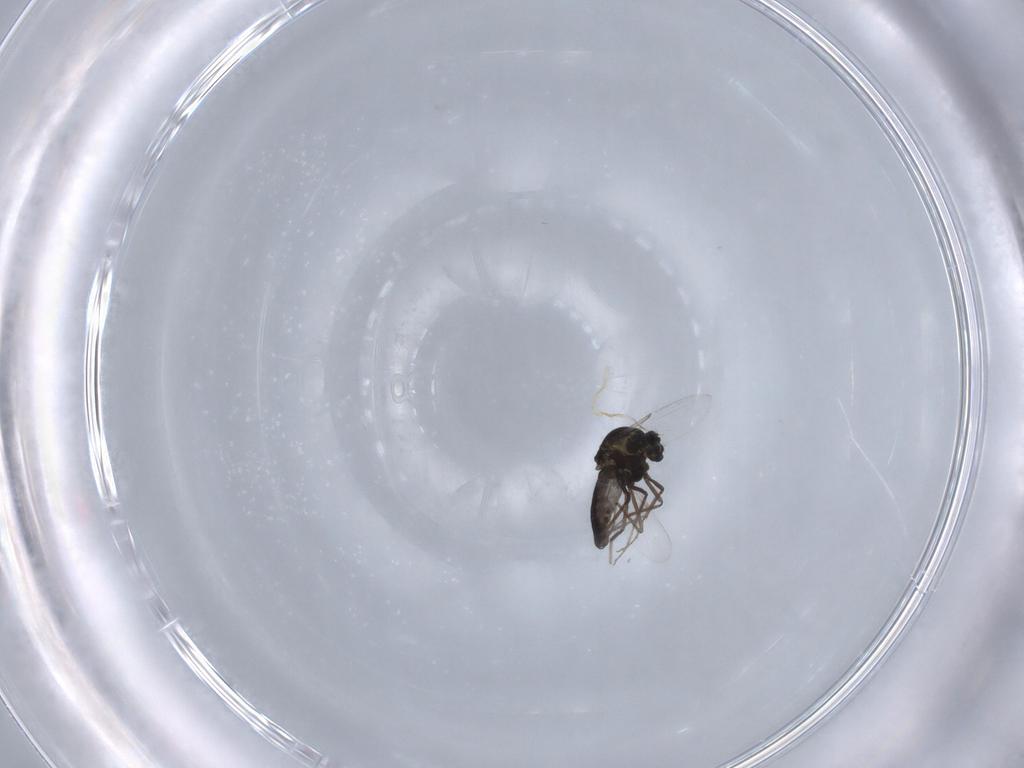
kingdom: Animalia
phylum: Arthropoda
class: Insecta
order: Diptera
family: Ceratopogonidae
